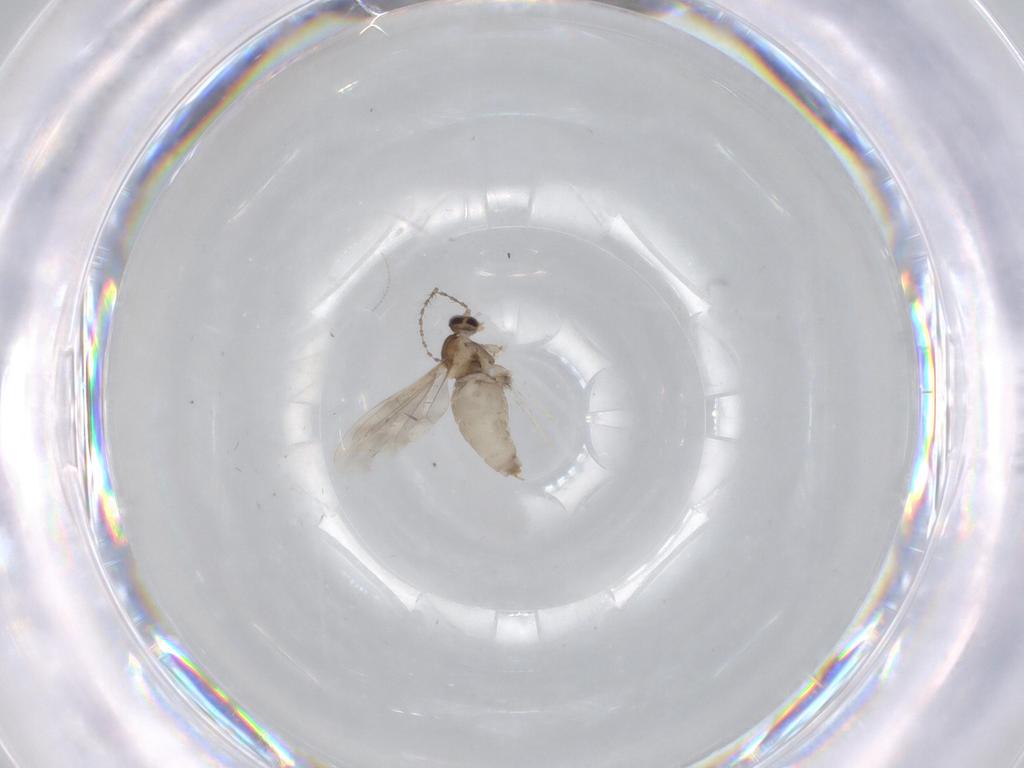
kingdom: Animalia
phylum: Arthropoda
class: Insecta
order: Diptera
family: Cecidomyiidae
